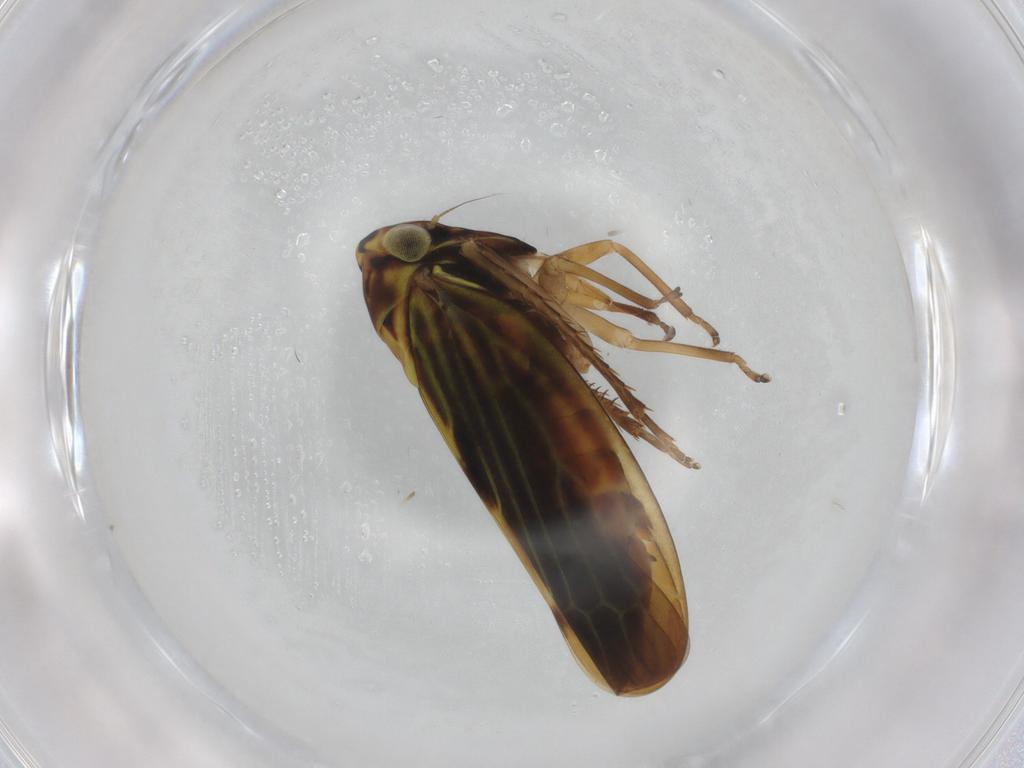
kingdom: Animalia
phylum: Arthropoda
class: Insecta
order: Hemiptera
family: Cicadellidae
